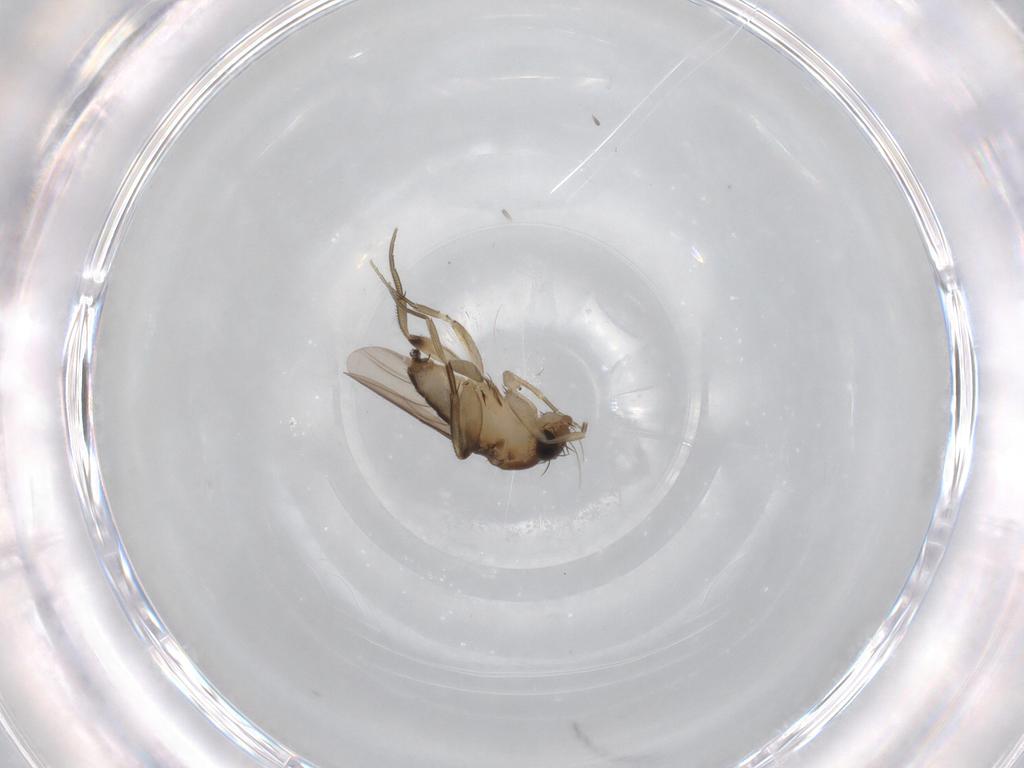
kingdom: Animalia
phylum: Arthropoda
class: Insecta
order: Diptera
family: Phoridae
